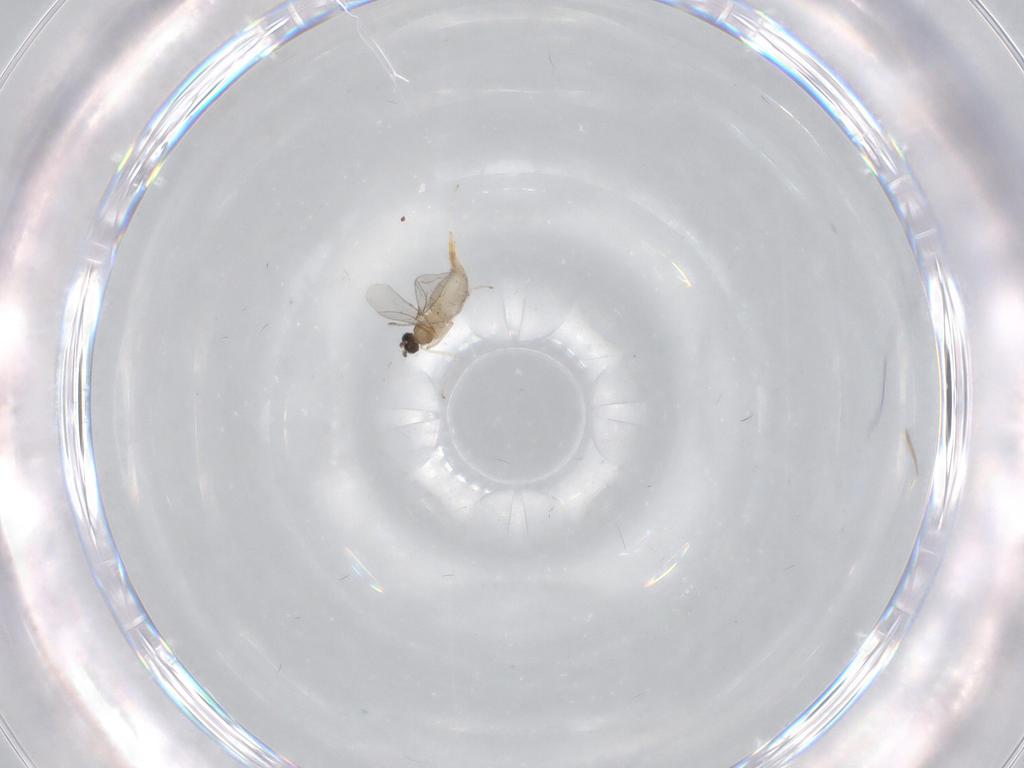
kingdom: Animalia
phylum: Arthropoda
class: Insecta
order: Diptera
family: Cecidomyiidae
